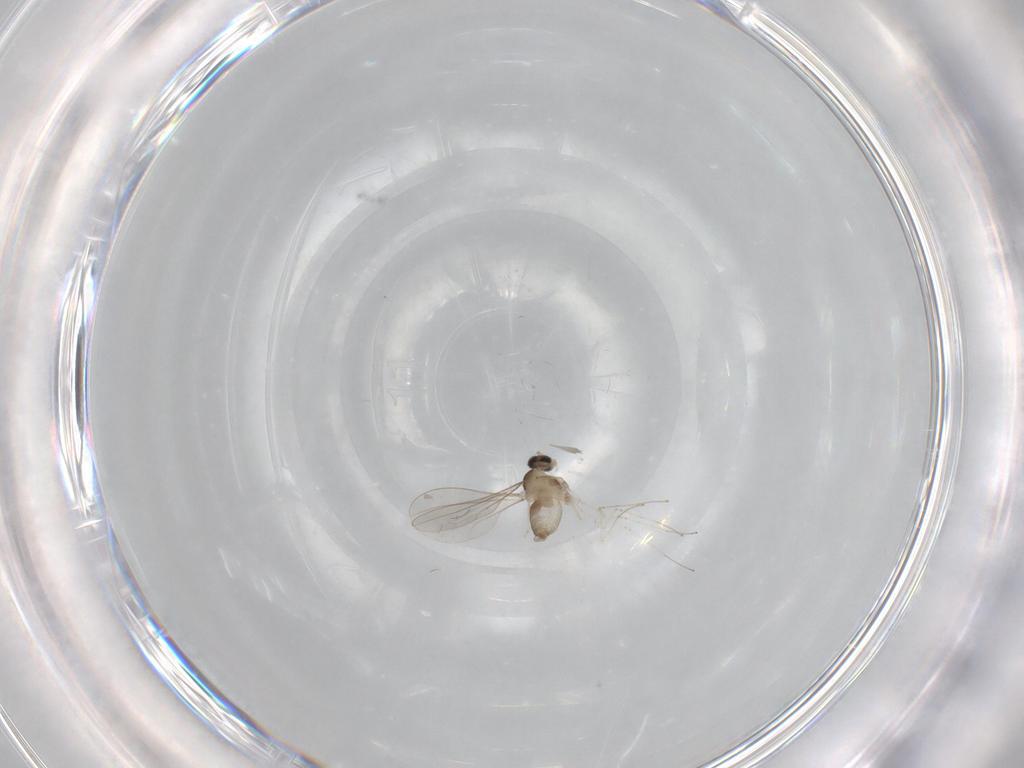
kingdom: Animalia
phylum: Arthropoda
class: Insecta
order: Diptera
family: Cecidomyiidae
